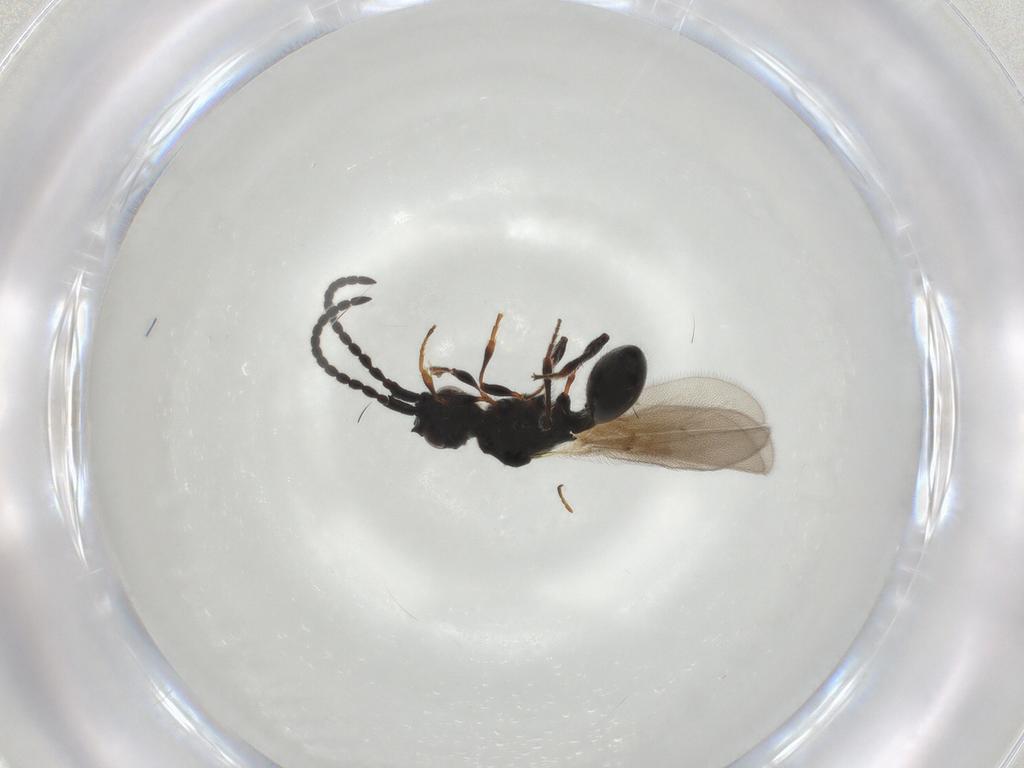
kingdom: Animalia
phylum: Arthropoda
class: Insecta
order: Hymenoptera
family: Diapriidae
